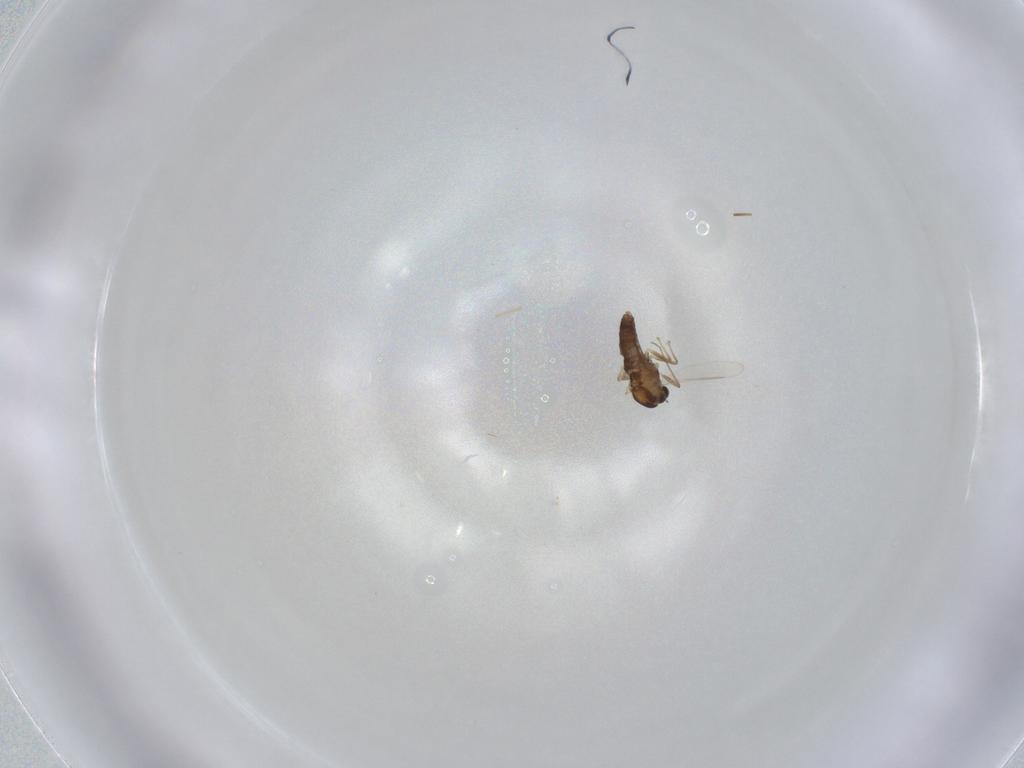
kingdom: Animalia
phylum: Arthropoda
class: Insecta
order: Diptera
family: Chironomidae
